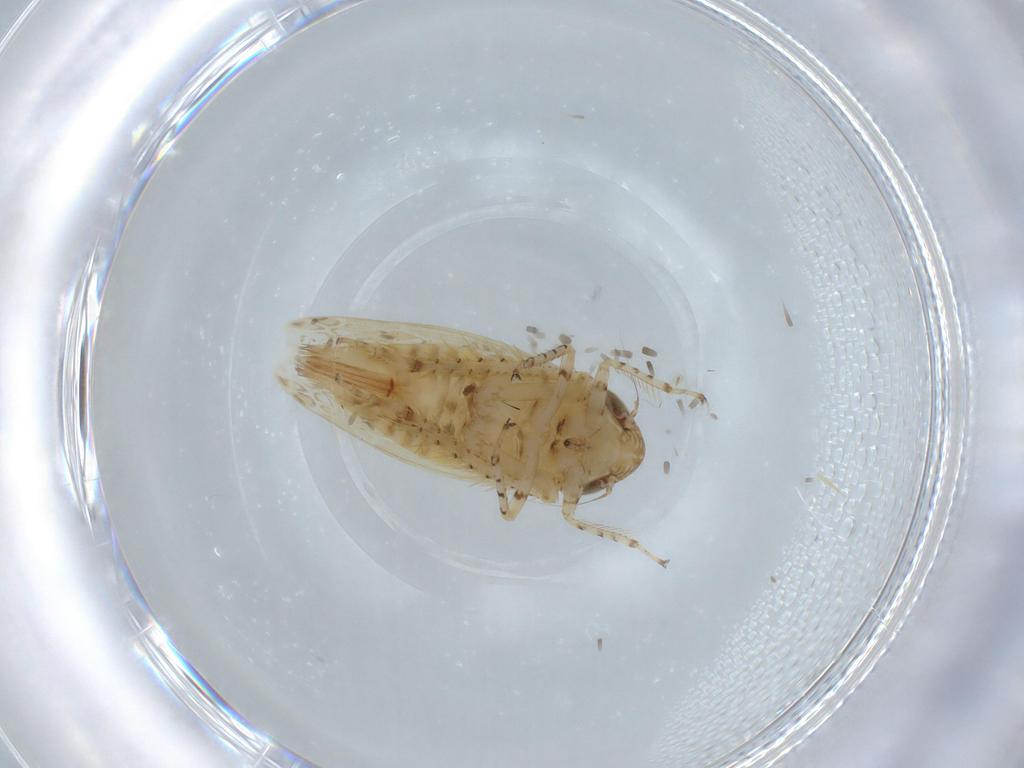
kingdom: Animalia
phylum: Arthropoda
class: Insecta
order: Hemiptera
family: Cicadellidae
